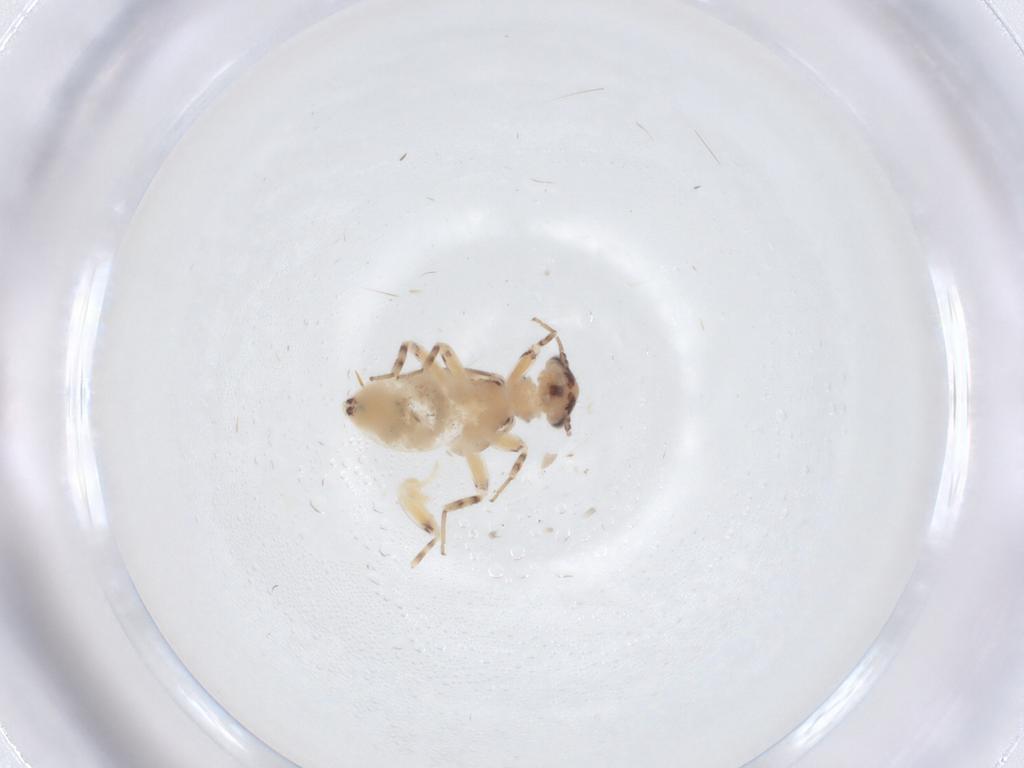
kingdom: Animalia
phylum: Arthropoda
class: Insecta
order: Psocodea
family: Lepidopsocidae
